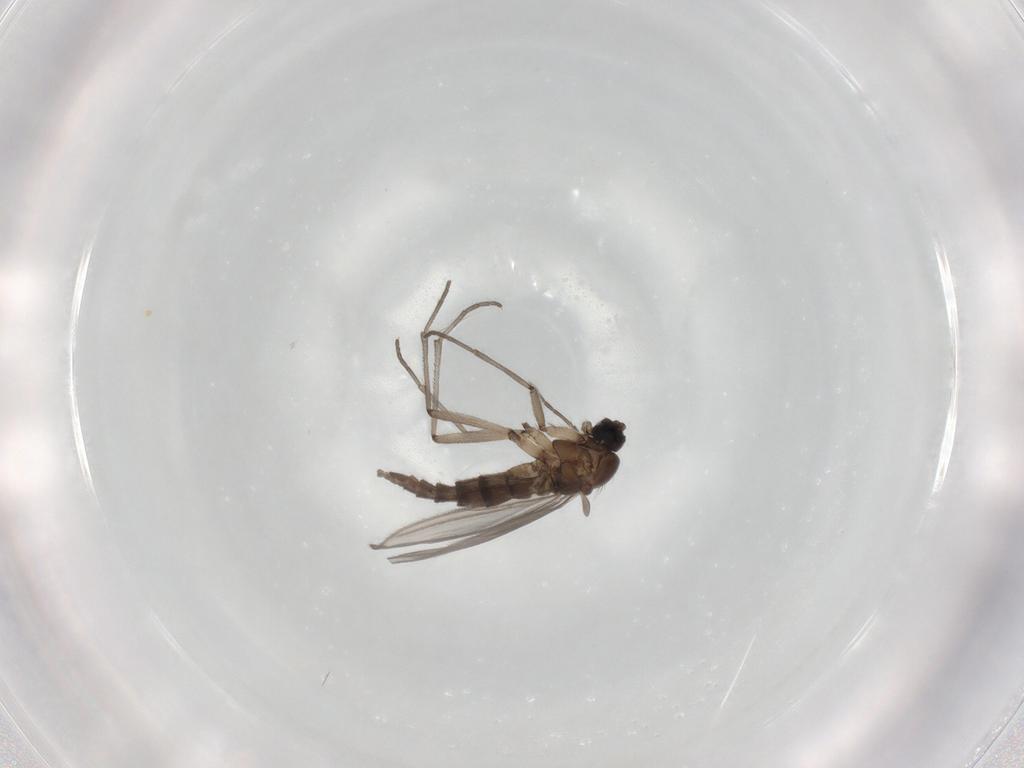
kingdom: Animalia
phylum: Arthropoda
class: Insecta
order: Diptera
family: Sciaridae
